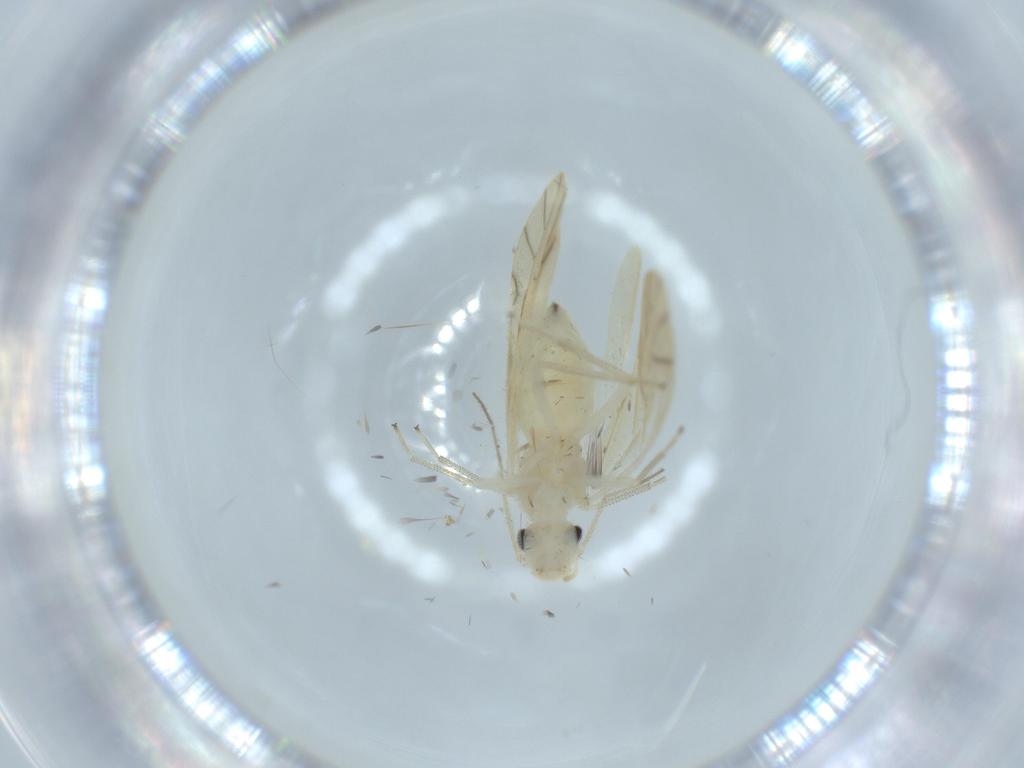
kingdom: Animalia
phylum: Arthropoda
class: Insecta
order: Psocodea
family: Caeciliusidae
